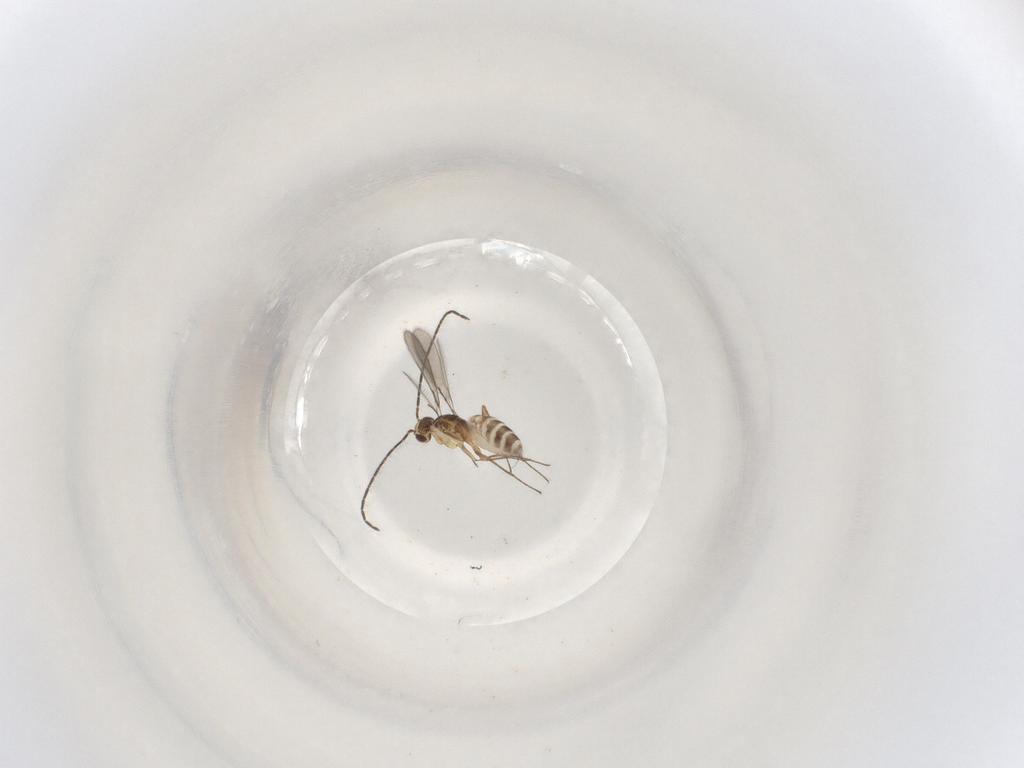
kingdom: Animalia
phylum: Arthropoda
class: Insecta
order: Hymenoptera
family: Mymaridae
